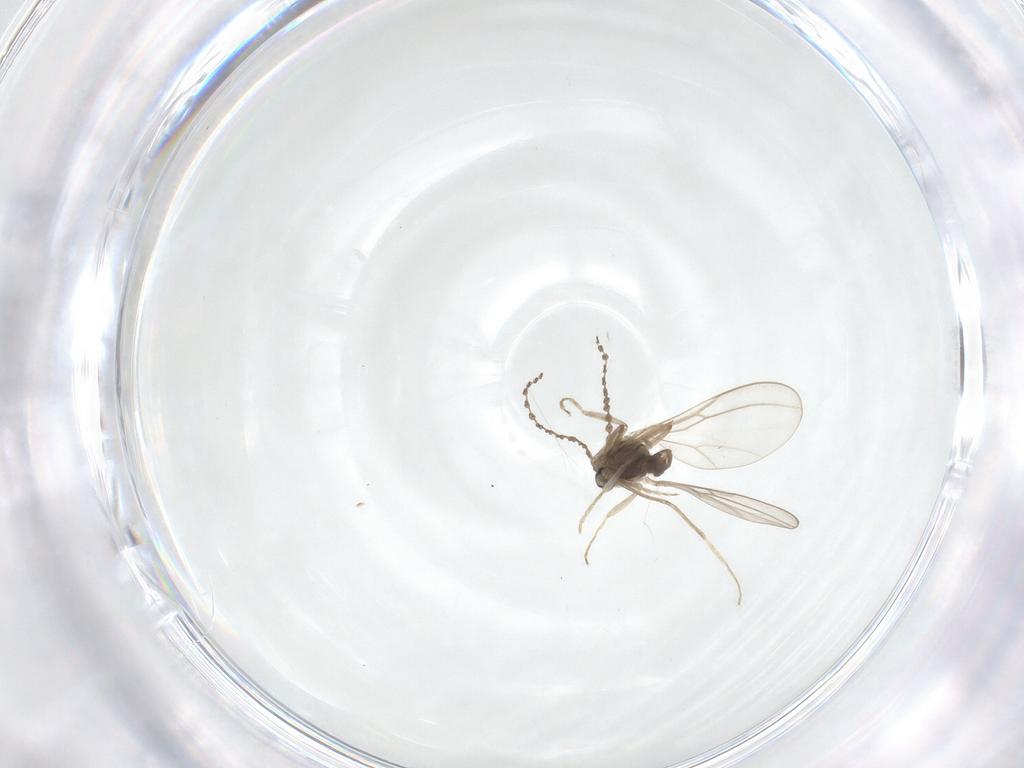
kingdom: Animalia
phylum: Arthropoda
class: Insecta
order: Diptera
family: Cecidomyiidae
